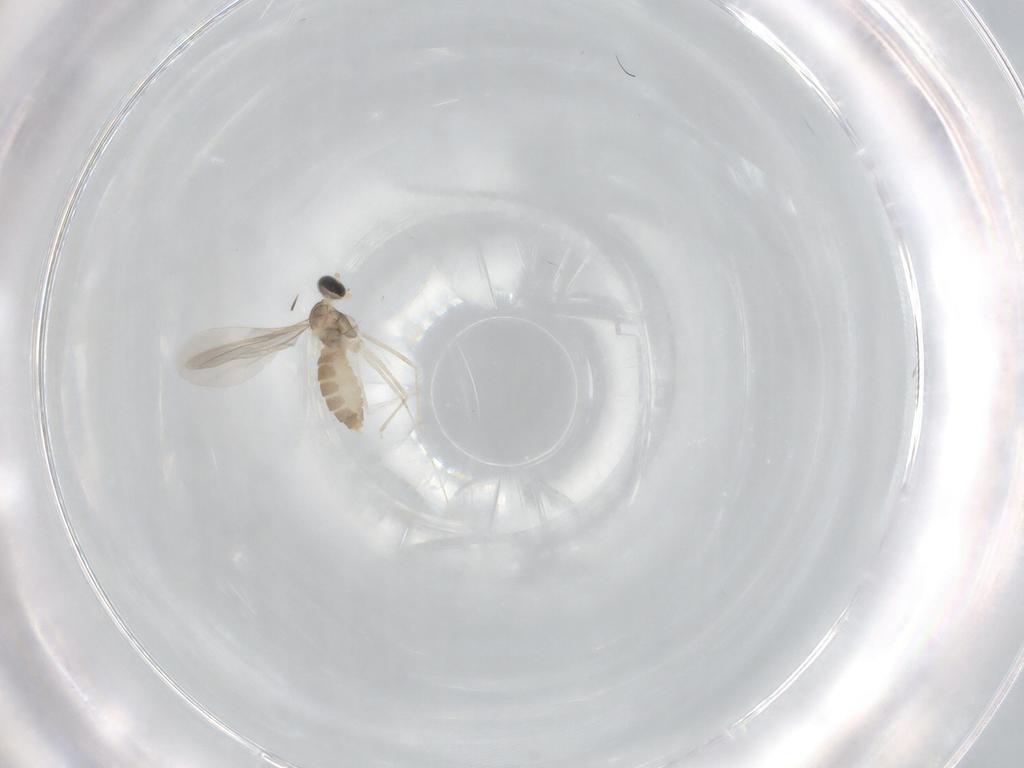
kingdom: Animalia
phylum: Arthropoda
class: Insecta
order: Diptera
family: Cecidomyiidae
